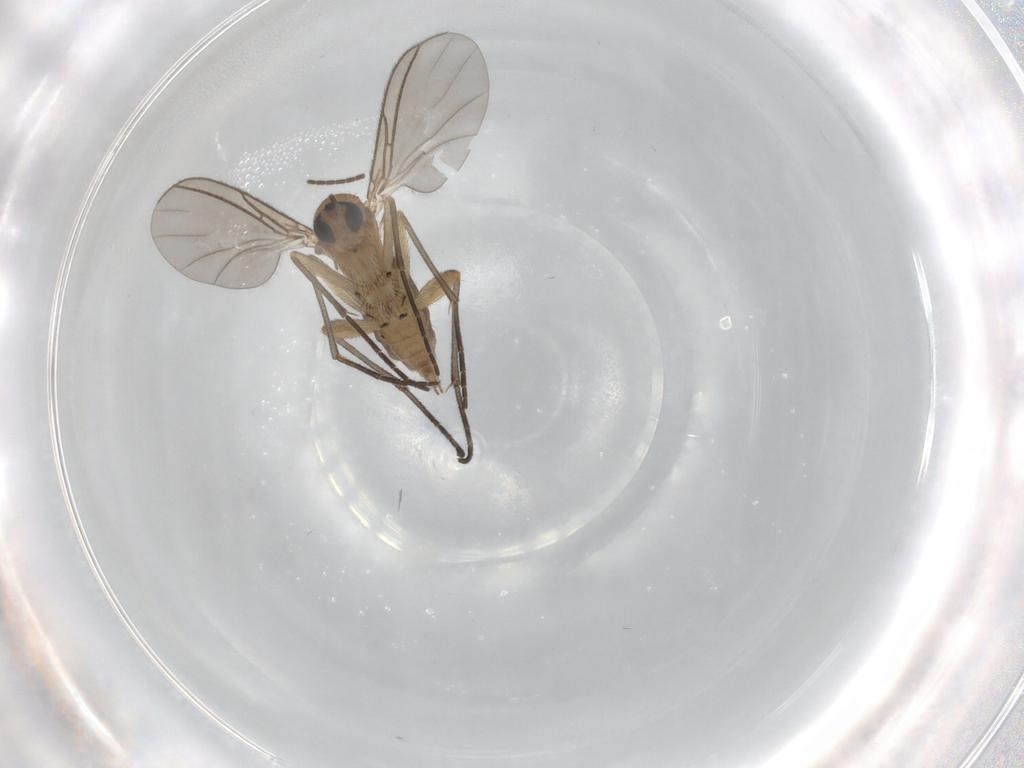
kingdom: Animalia
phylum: Arthropoda
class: Insecta
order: Diptera
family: Sciaridae
